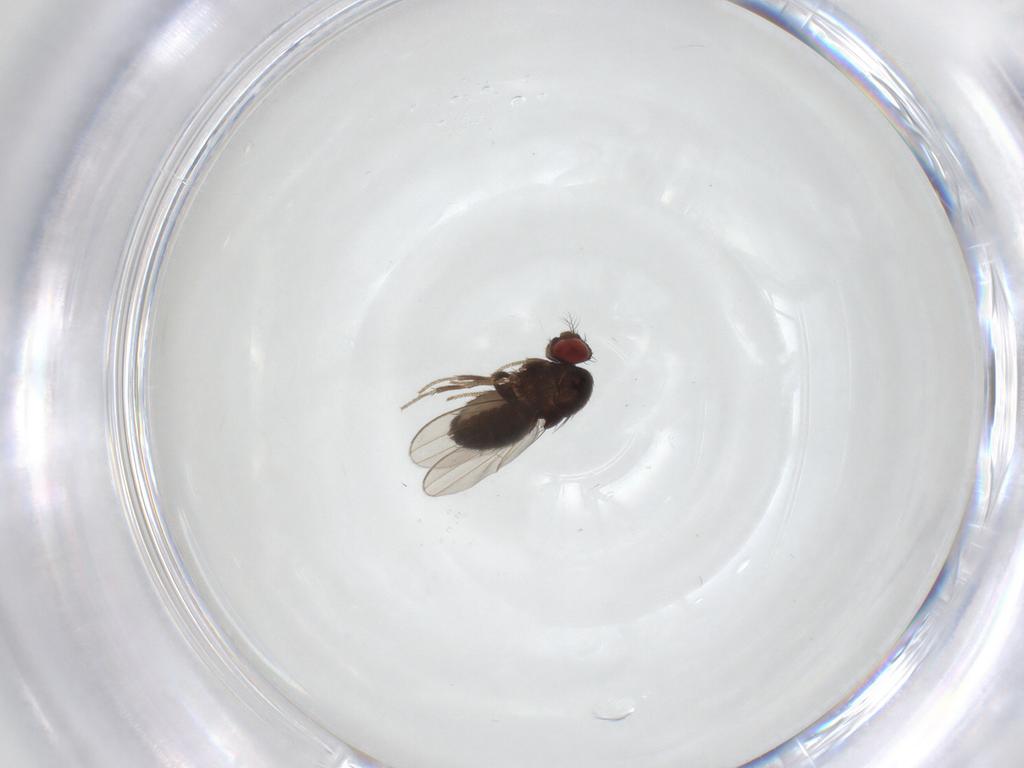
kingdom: Animalia
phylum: Arthropoda
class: Insecta
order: Diptera
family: Drosophilidae
